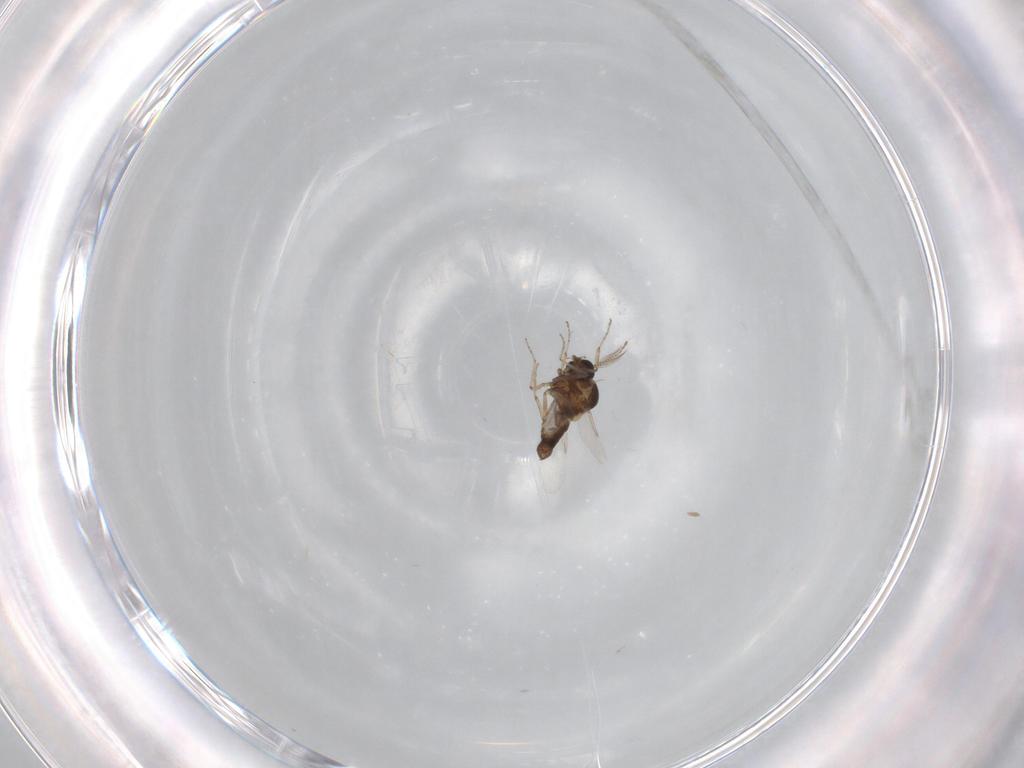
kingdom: Animalia
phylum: Arthropoda
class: Insecta
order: Diptera
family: Ceratopogonidae
